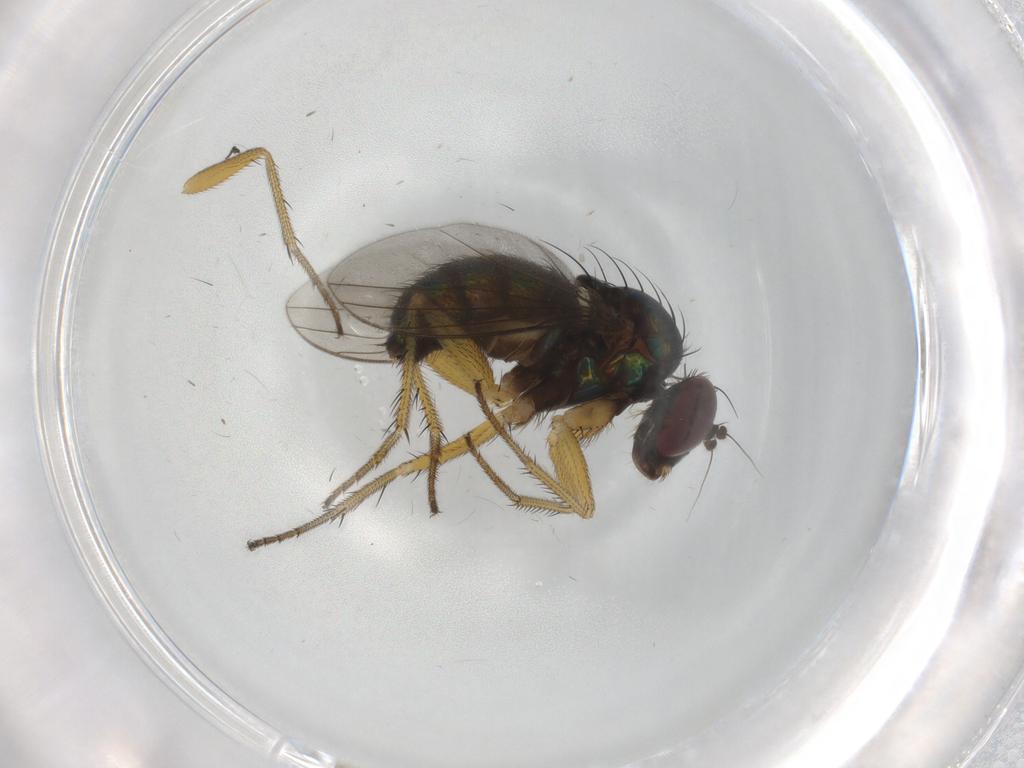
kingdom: Animalia
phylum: Arthropoda
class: Insecta
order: Diptera
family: Dolichopodidae
